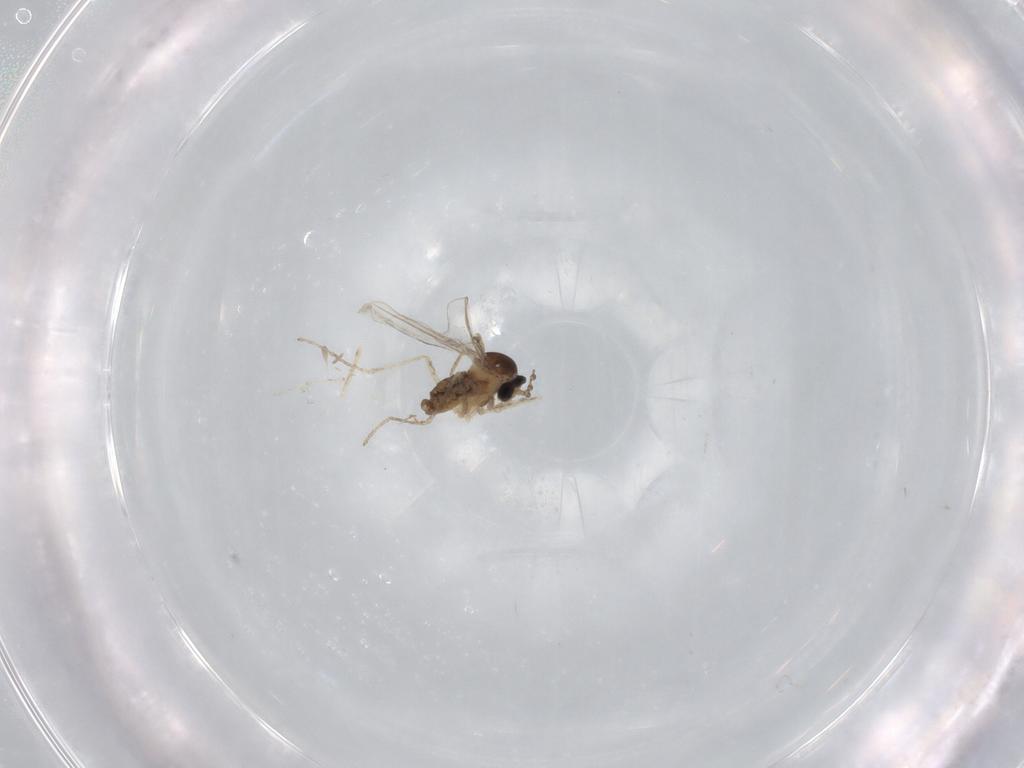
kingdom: Animalia
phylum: Arthropoda
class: Insecta
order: Diptera
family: Cecidomyiidae
